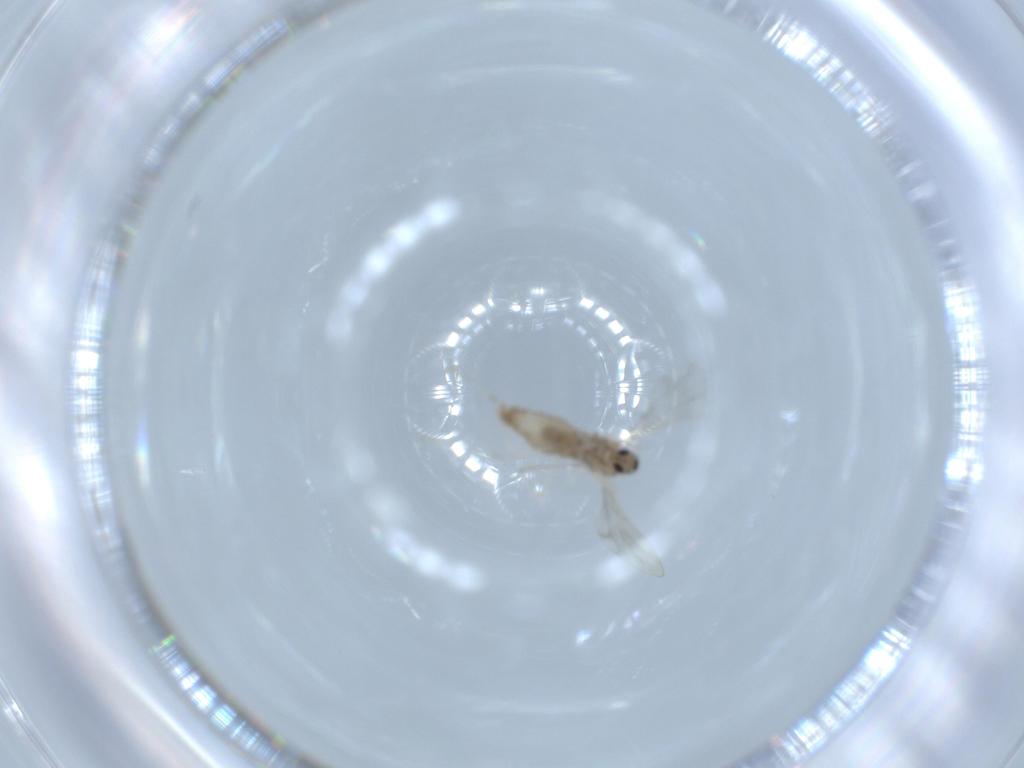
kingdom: Animalia
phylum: Arthropoda
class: Insecta
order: Diptera
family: Cecidomyiidae
